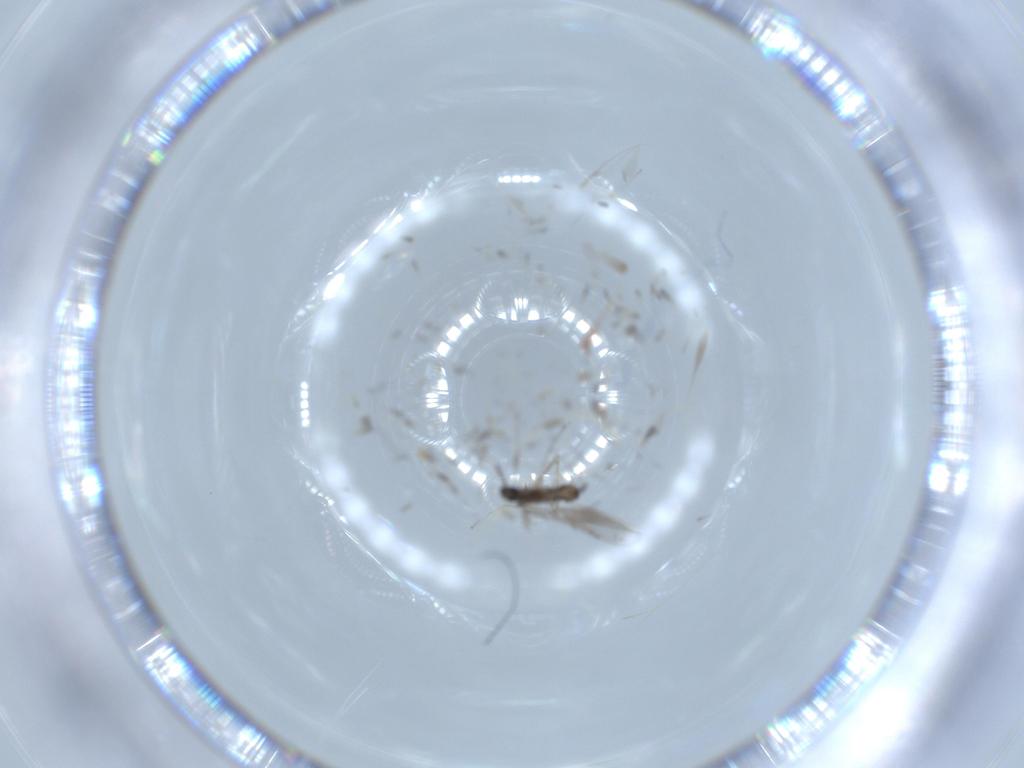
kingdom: Animalia
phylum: Arthropoda
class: Insecta
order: Diptera
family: Cecidomyiidae
